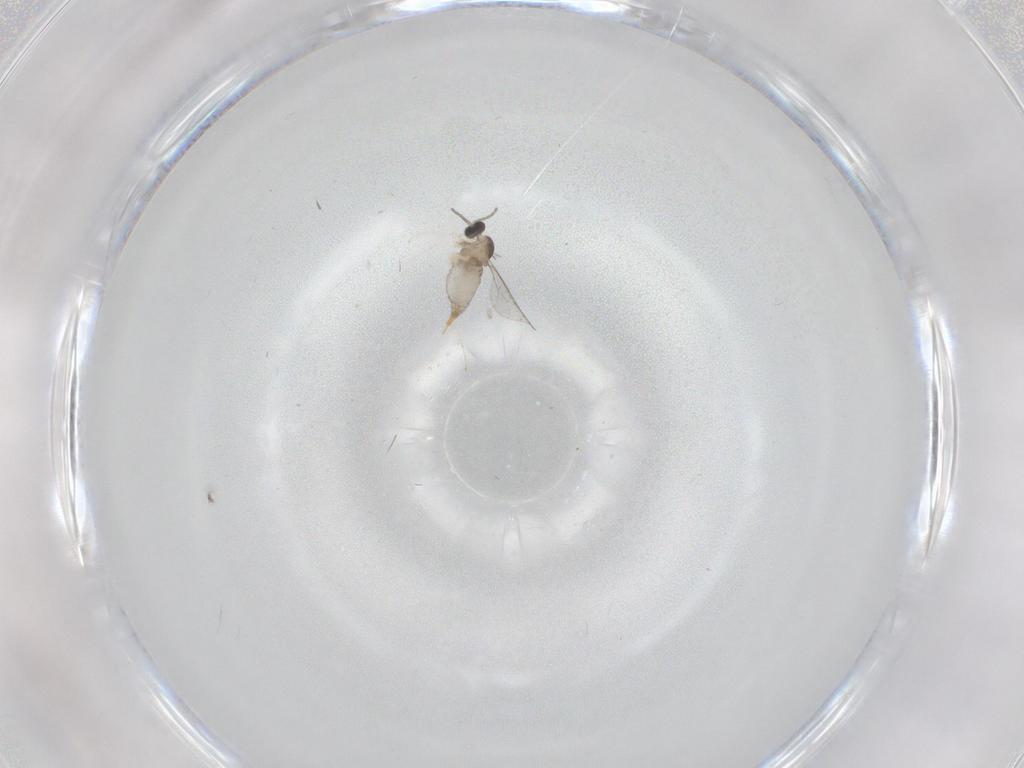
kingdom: Animalia
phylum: Arthropoda
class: Insecta
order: Diptera
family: Cecidomyiidae
